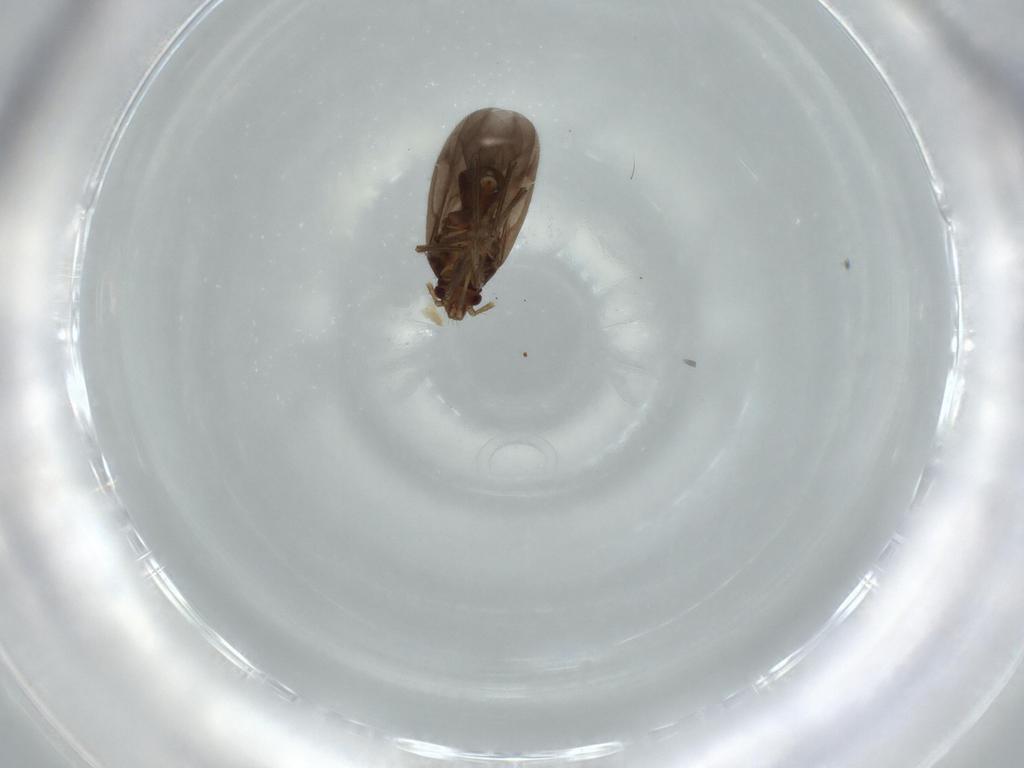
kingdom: Animalia
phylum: Arthropoda
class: Insecta
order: Hemiptera
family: Ceratocombidae
